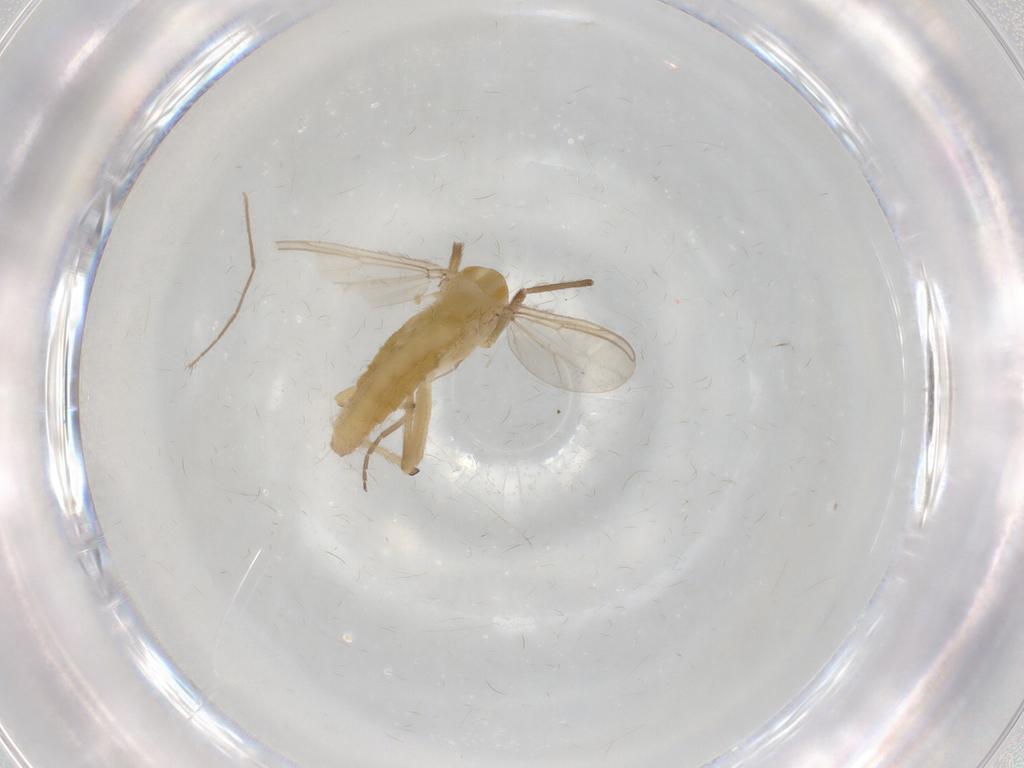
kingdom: Animalia
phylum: Arthropoda
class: Insecta
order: Diptera
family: Chironomidae
